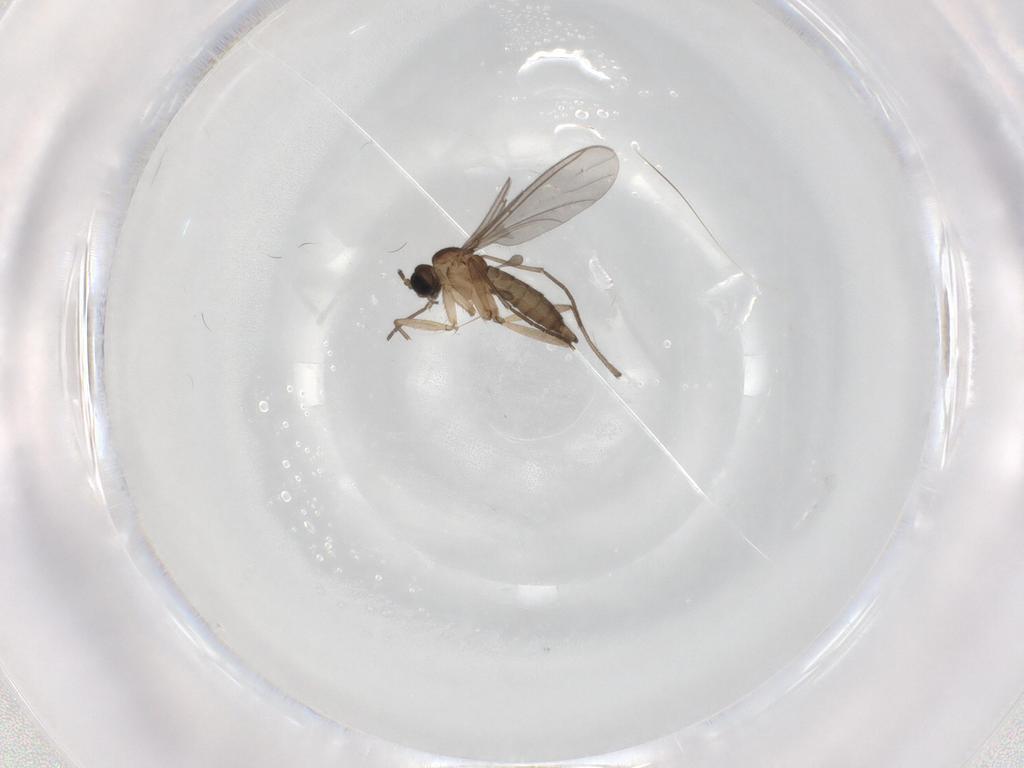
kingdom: Animalia
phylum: Arthropoda
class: Insecta
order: Diptera
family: Sciaridae
